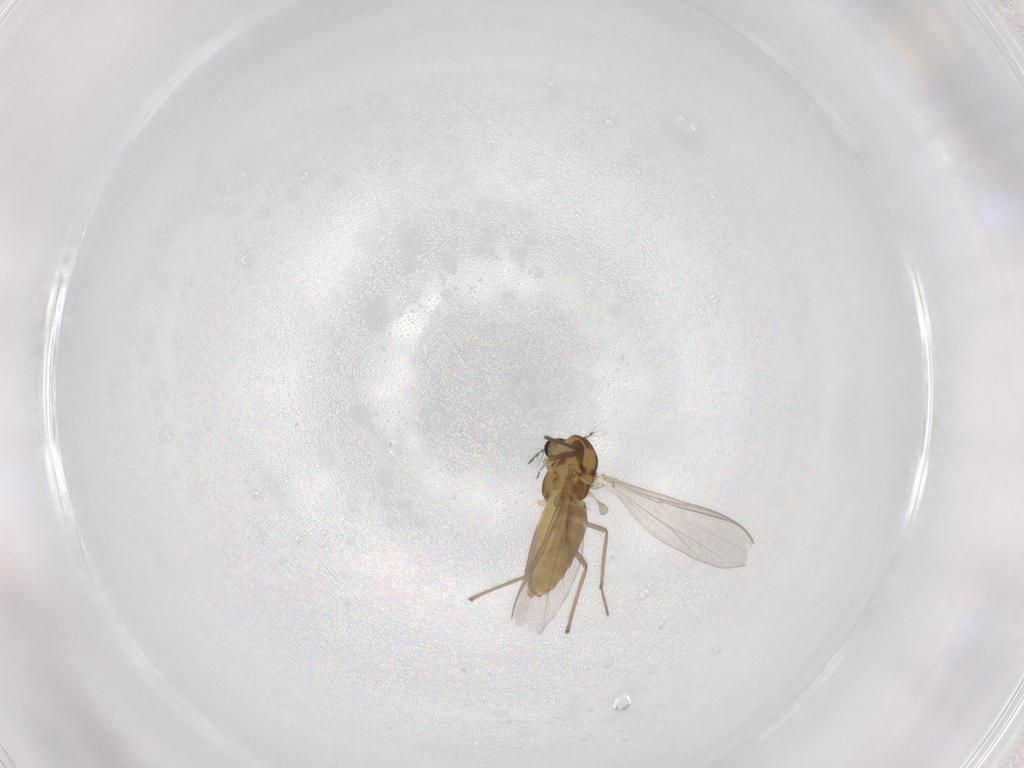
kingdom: Animalia
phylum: Arthropoda
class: Insecta
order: Diptera
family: Chironomidae
